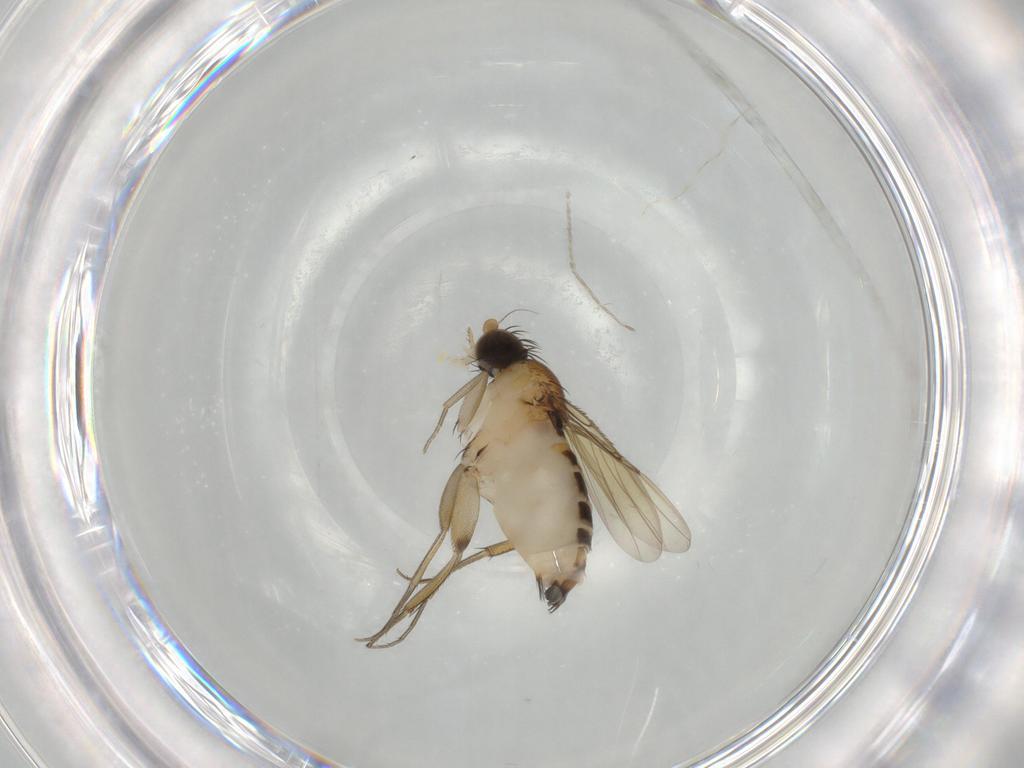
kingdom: Animalia
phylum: Arthropoda
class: Insecta
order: Diptera
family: Phoridae
